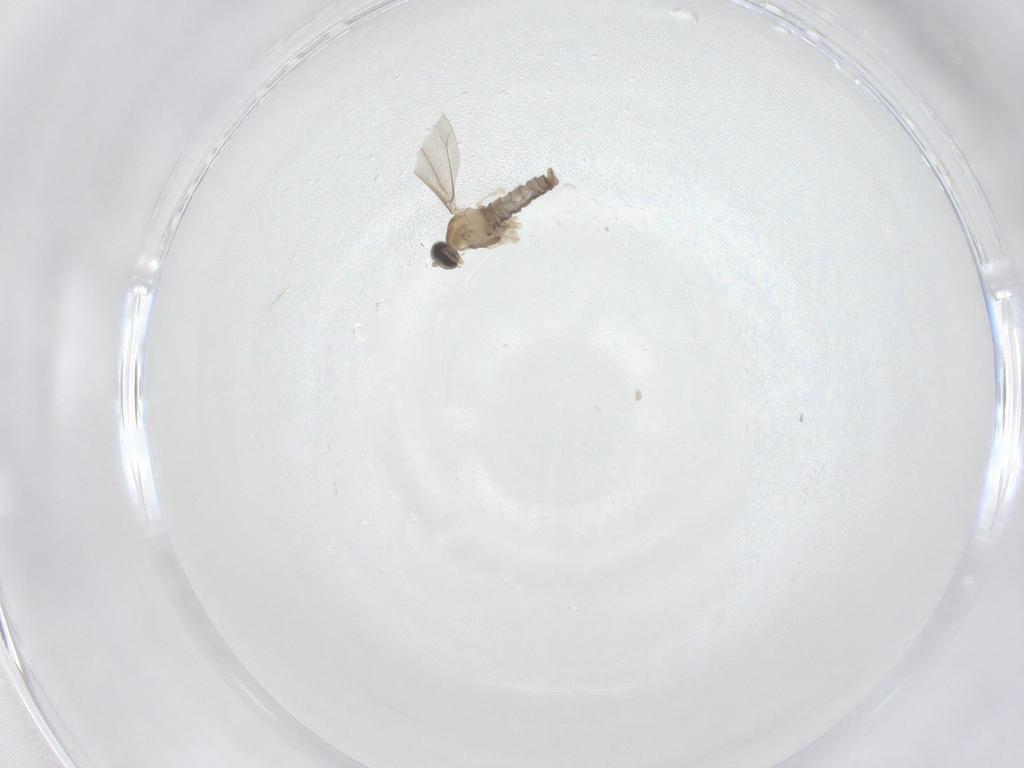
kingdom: Animalia
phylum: Arthropoda
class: Insecta
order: Diptera
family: Cecidomyiidae
